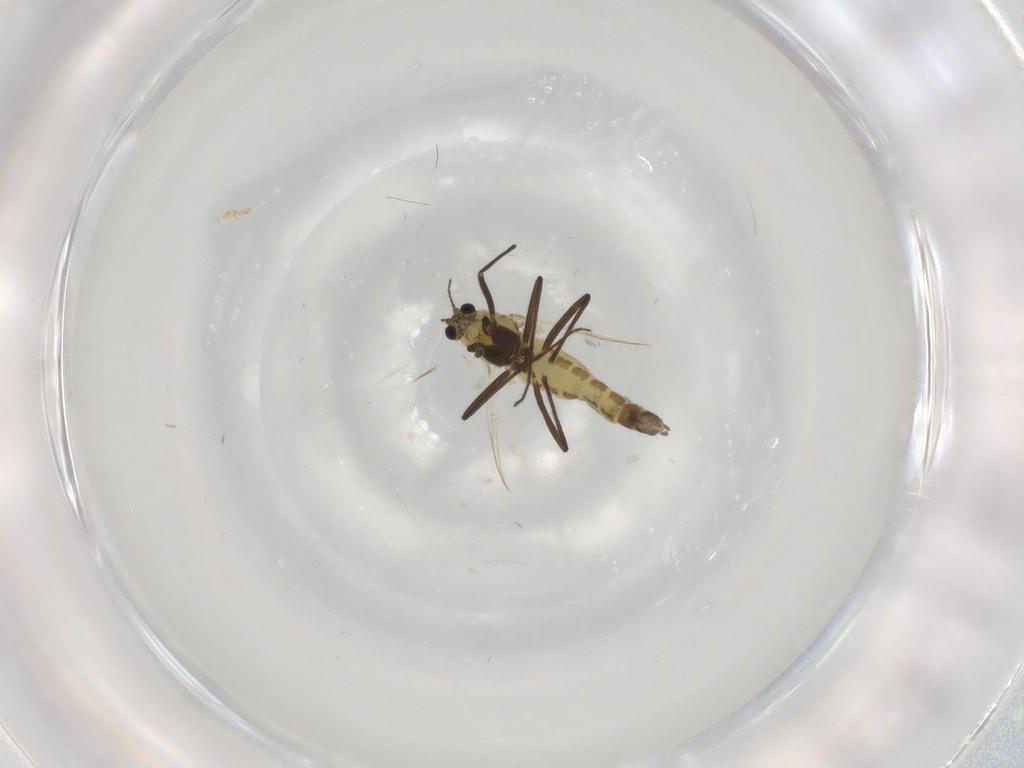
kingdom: Animalia
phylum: Arthropoda
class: Insecta
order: Diptera
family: Chironomidae
